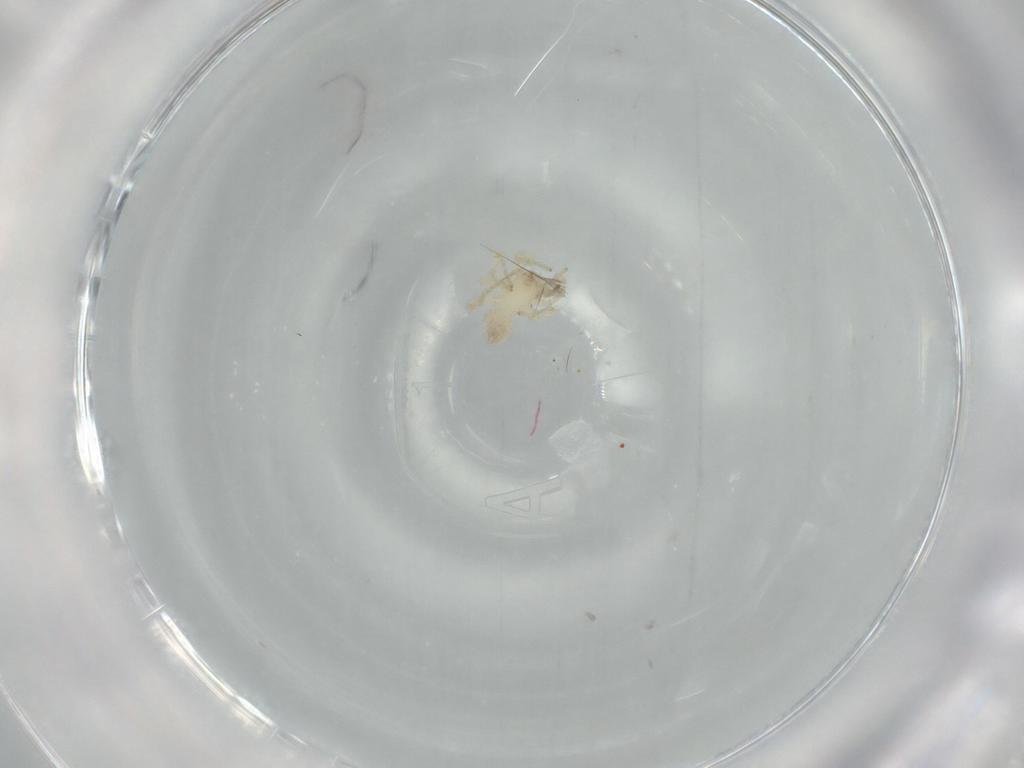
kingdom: Animalia
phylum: Arthropoda
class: Arachnida
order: Araneae
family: Oonopidae
